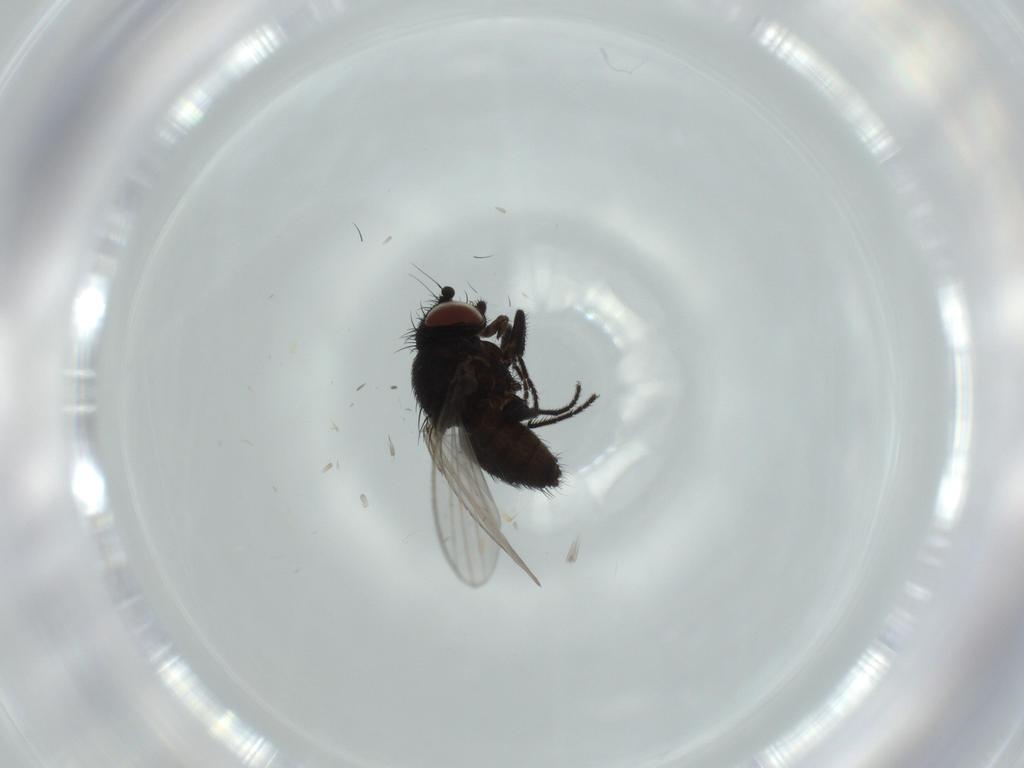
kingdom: Animalia
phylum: Arthropoda
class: Insecta
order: Diptera
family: Milichiidae
